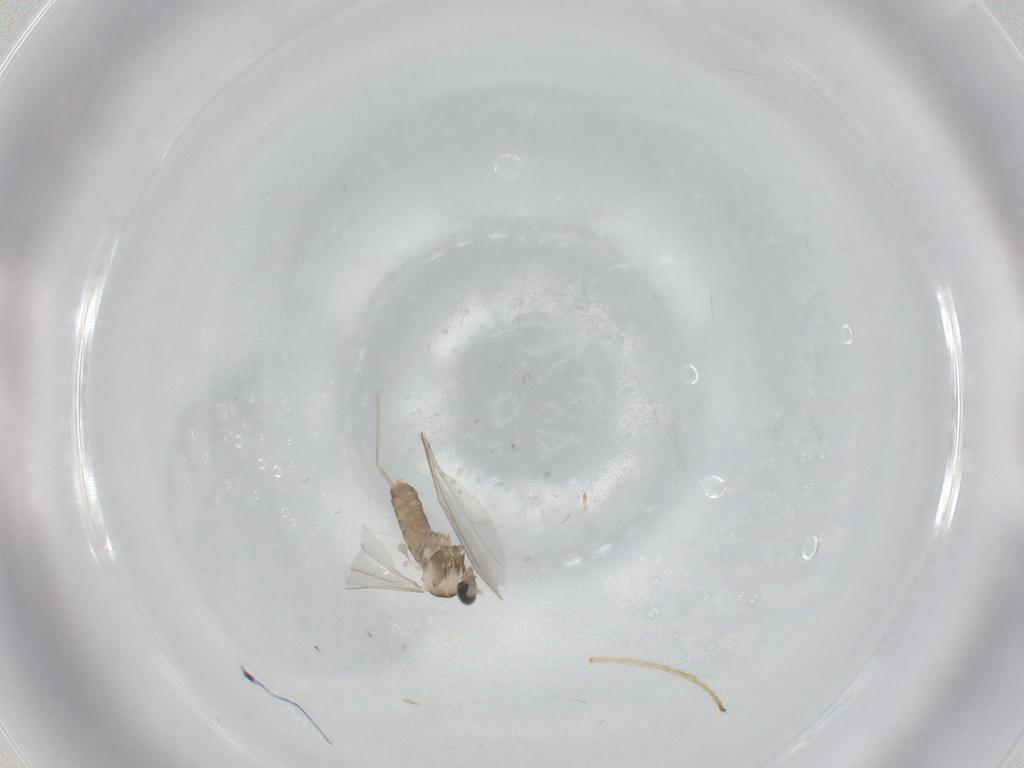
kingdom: Animalia
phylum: Arthropoda
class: Insecta
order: Diptera
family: Cecidomyiidae
